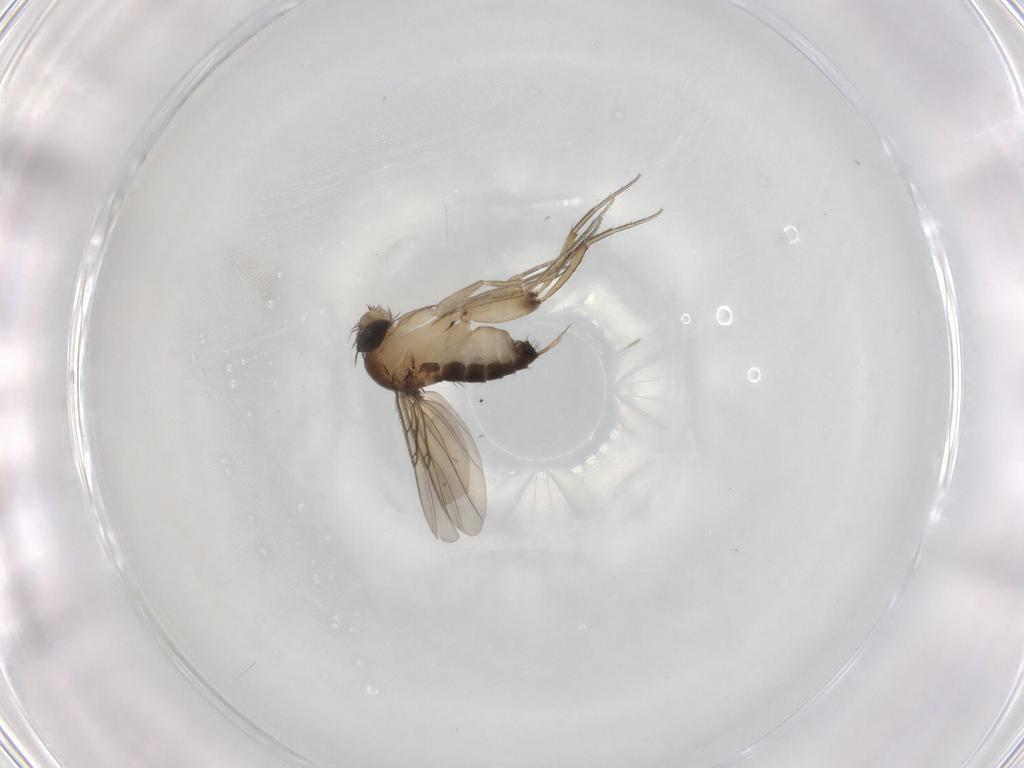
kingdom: Animalia
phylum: Arthropoda
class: Insecta
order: Diptera
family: Phoridae
